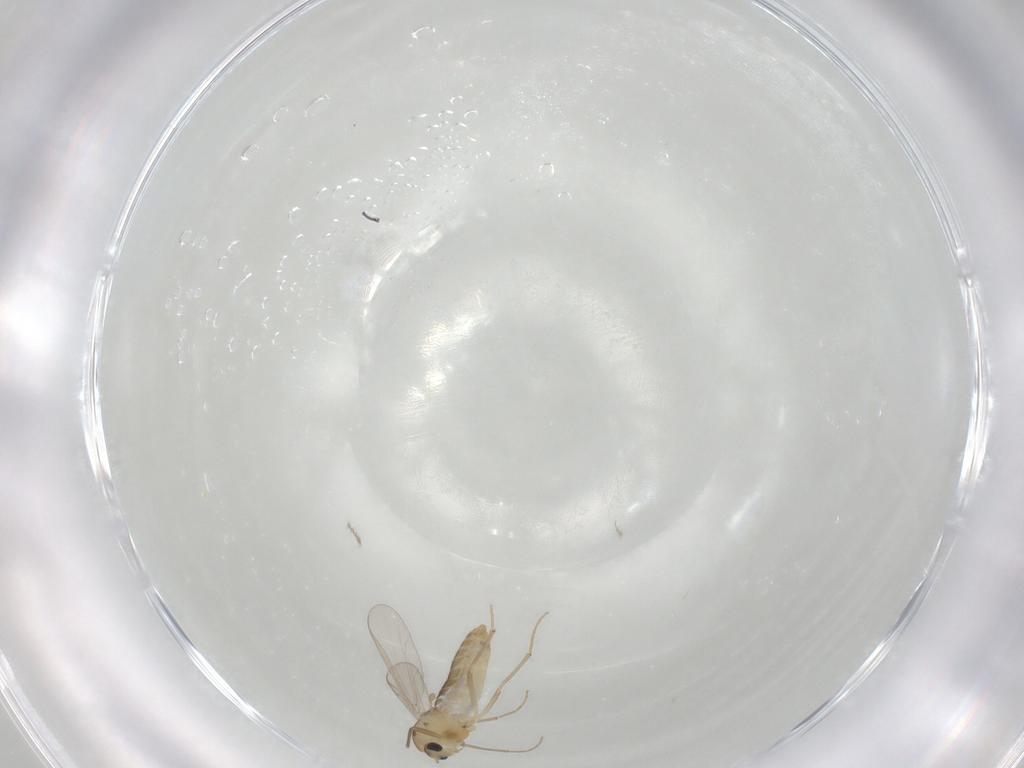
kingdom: Animalia
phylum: Arthropoda
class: Insecta
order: Diptera
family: Chironomidae
